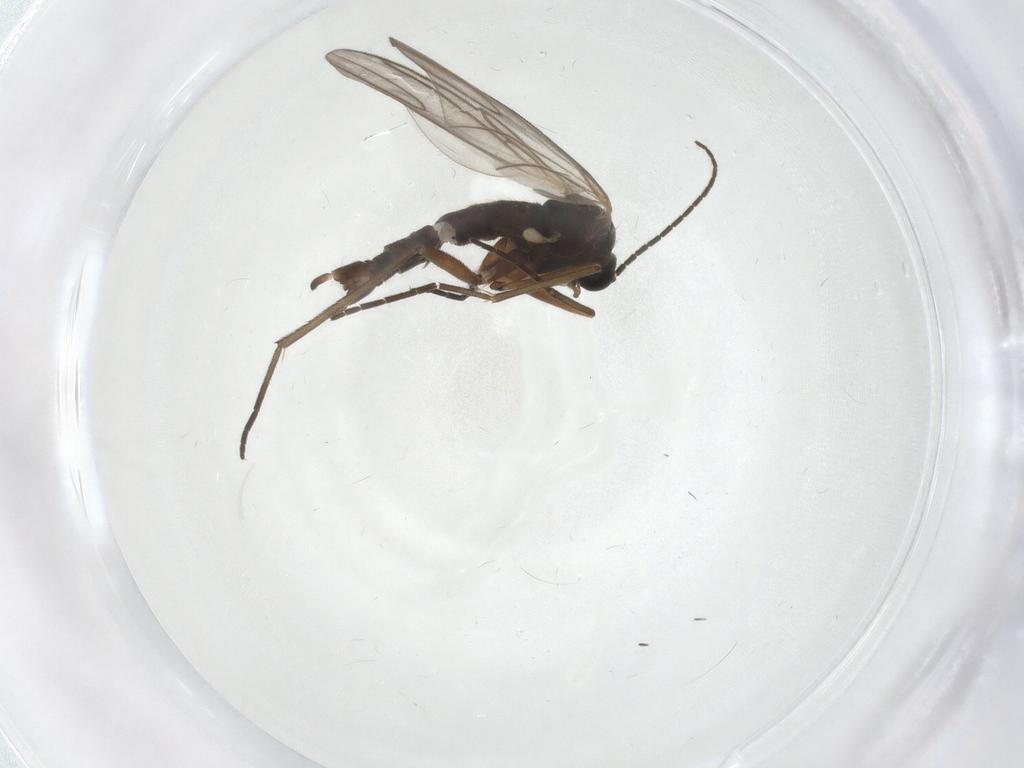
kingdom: Animalia
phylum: Arthropoda
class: Insecta
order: Diptera
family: Sciaridae
